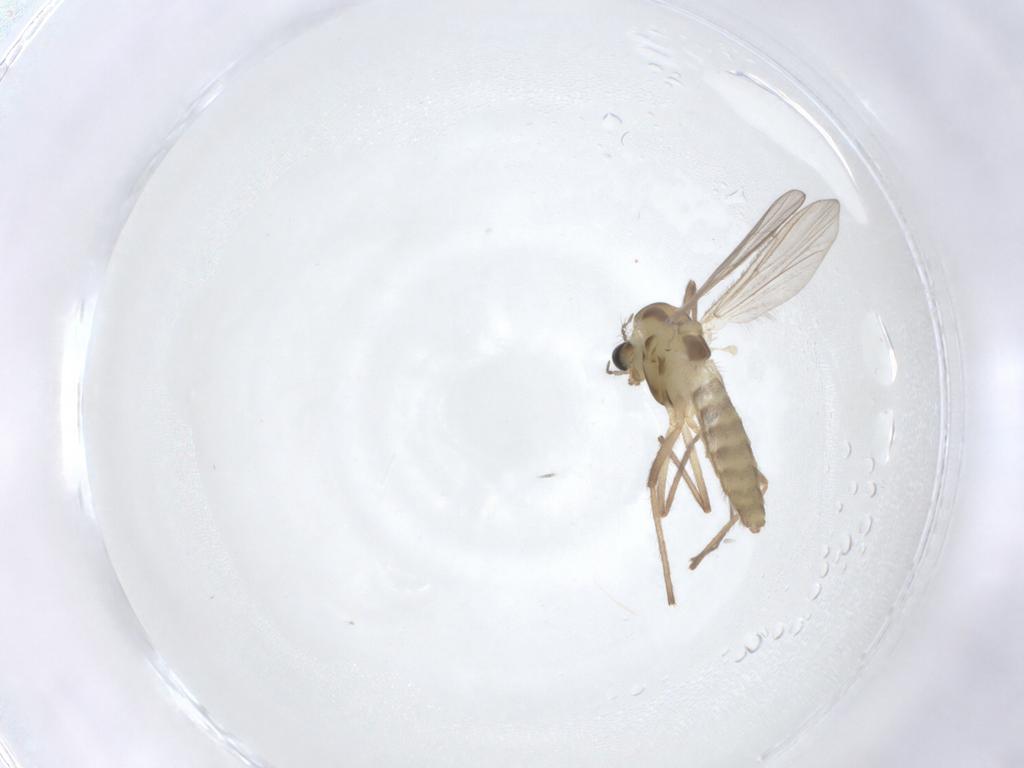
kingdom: Animalia
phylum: Arthropoda
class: Insecta
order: Diptera
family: Chironomidae
